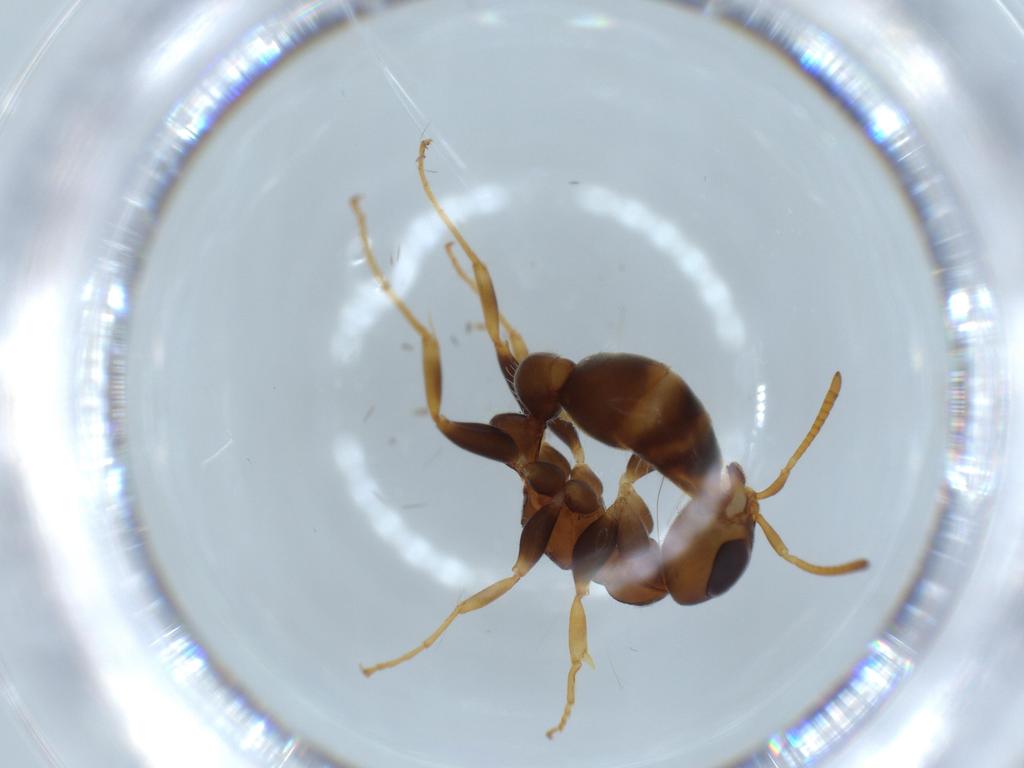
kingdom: Animalia
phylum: Arthropoda
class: Insecta
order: Hymenoptera
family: Formicidae
